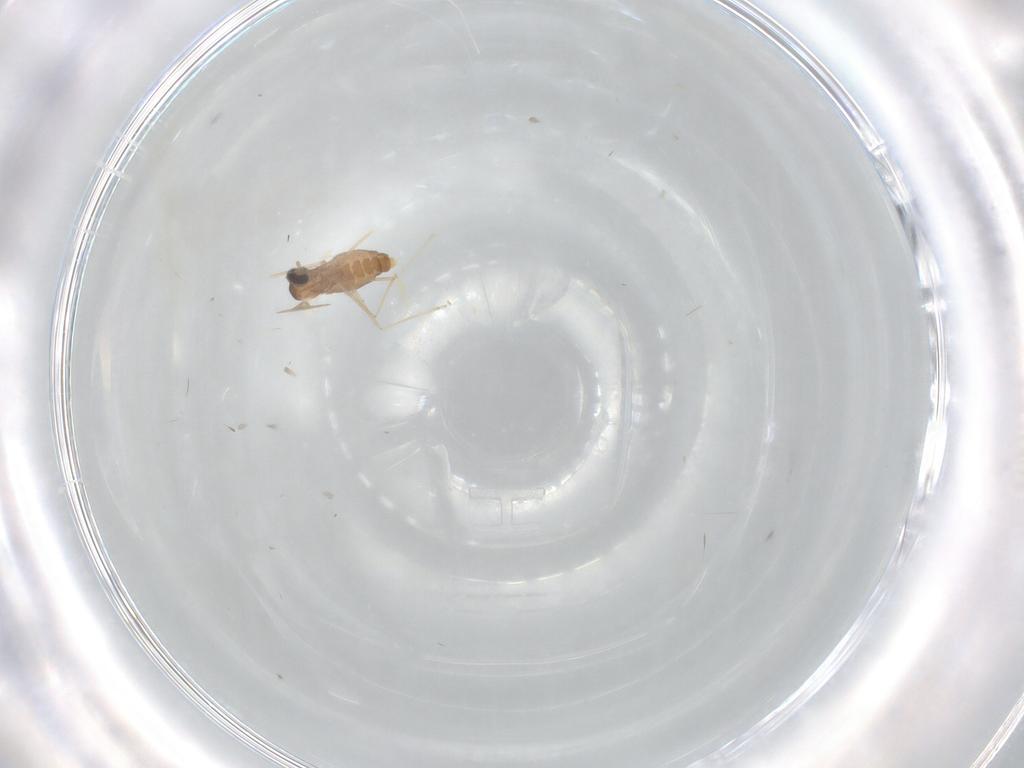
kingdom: Animalia
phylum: Arthropoda
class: Insecta
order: Diptera
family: Cecidomyiidae
